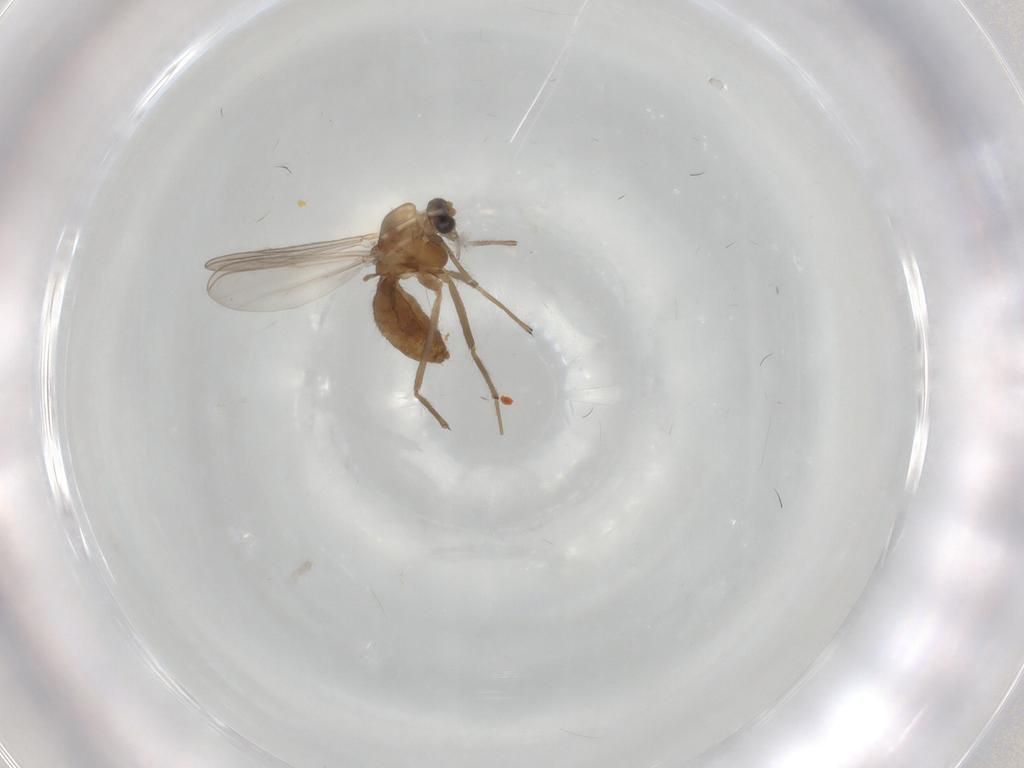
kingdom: Animalia
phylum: Arthropoda
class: Insecta
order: Diptera
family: Chironomidae
